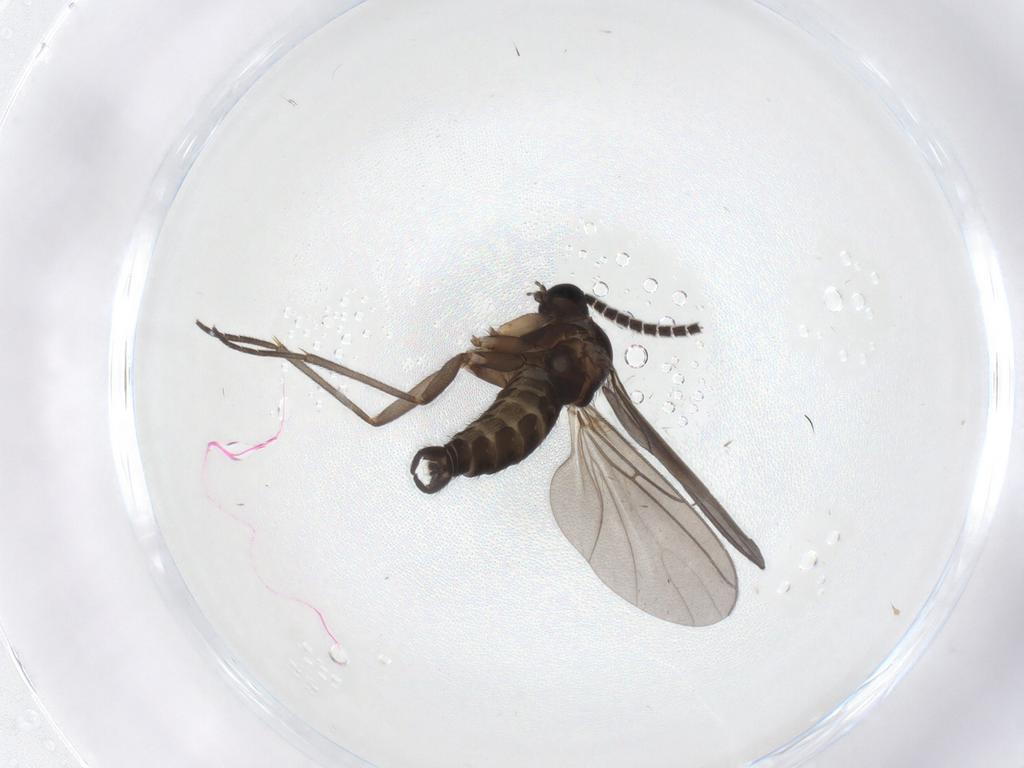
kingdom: Animalia
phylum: Arthropoda
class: Insecta
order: Diptera
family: Sciaridae
